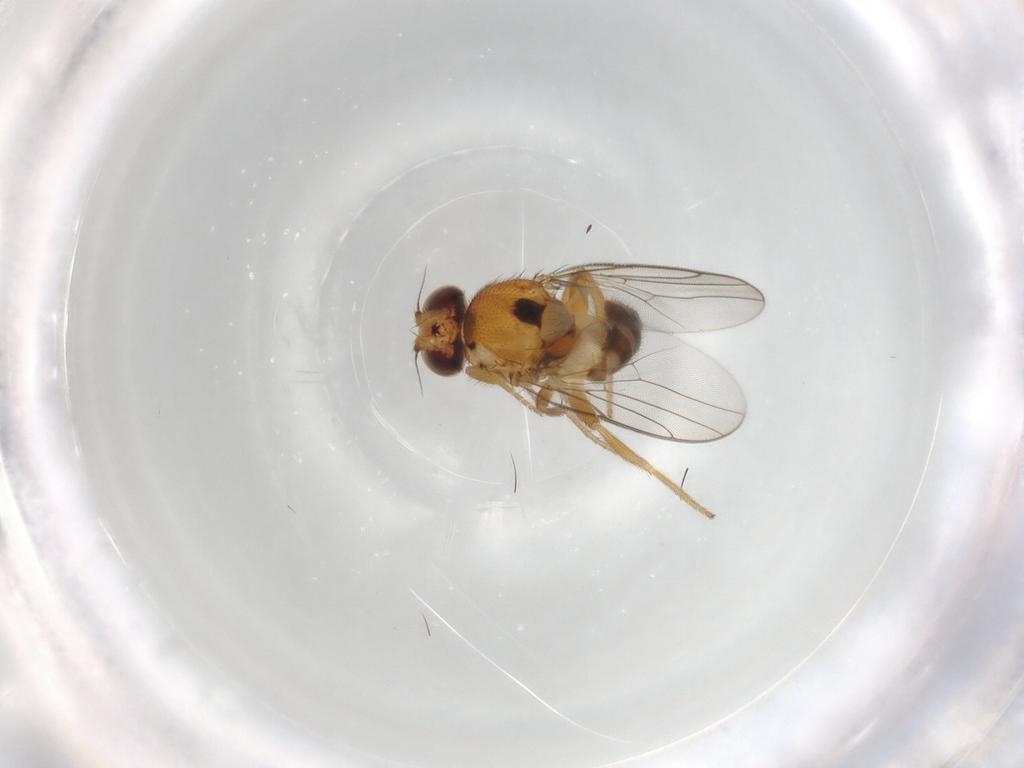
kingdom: Animalia
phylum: Arthropoda
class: Insecta
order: Diptera
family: Chloropidae
